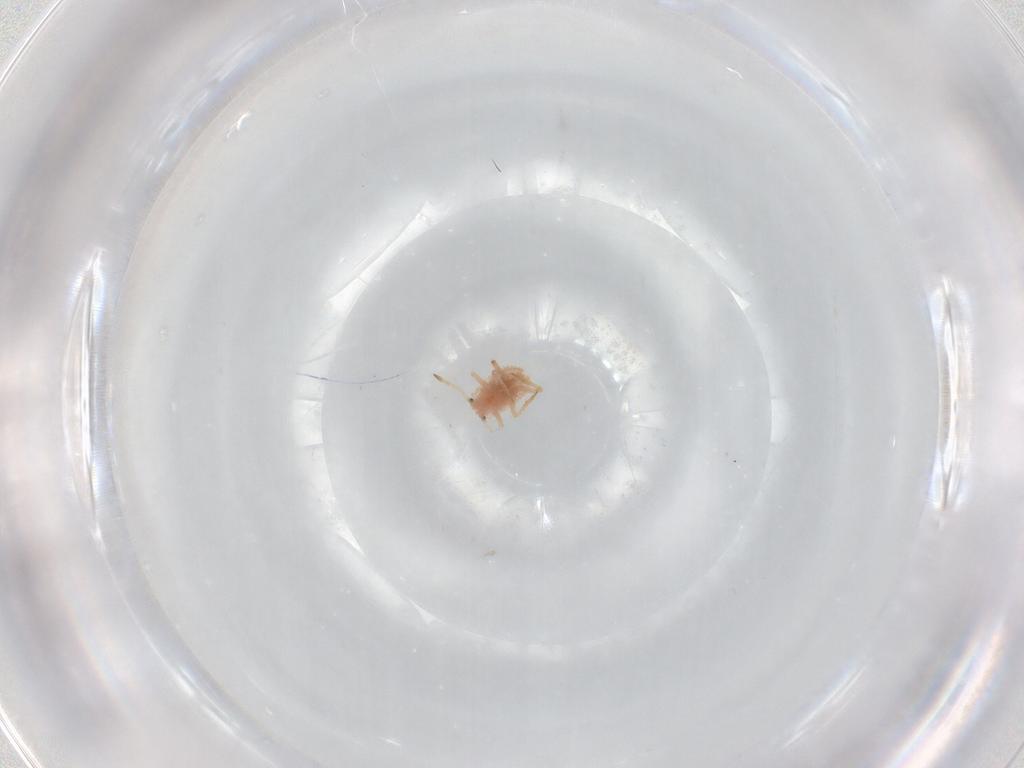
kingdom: Animalia
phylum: Arthropoda
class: Insecta
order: Hemiptera
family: Coccoidea_incertae_sedis
